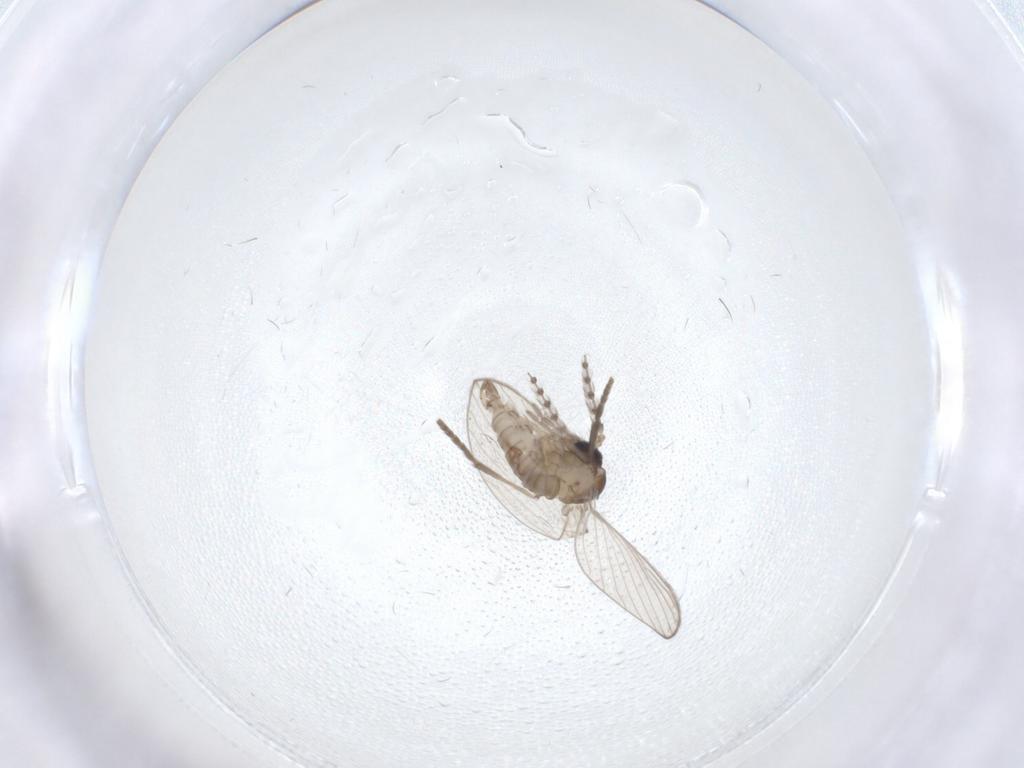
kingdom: Animalia
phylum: Arthropoda
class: Insecta
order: Diptera
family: Psychodidae
